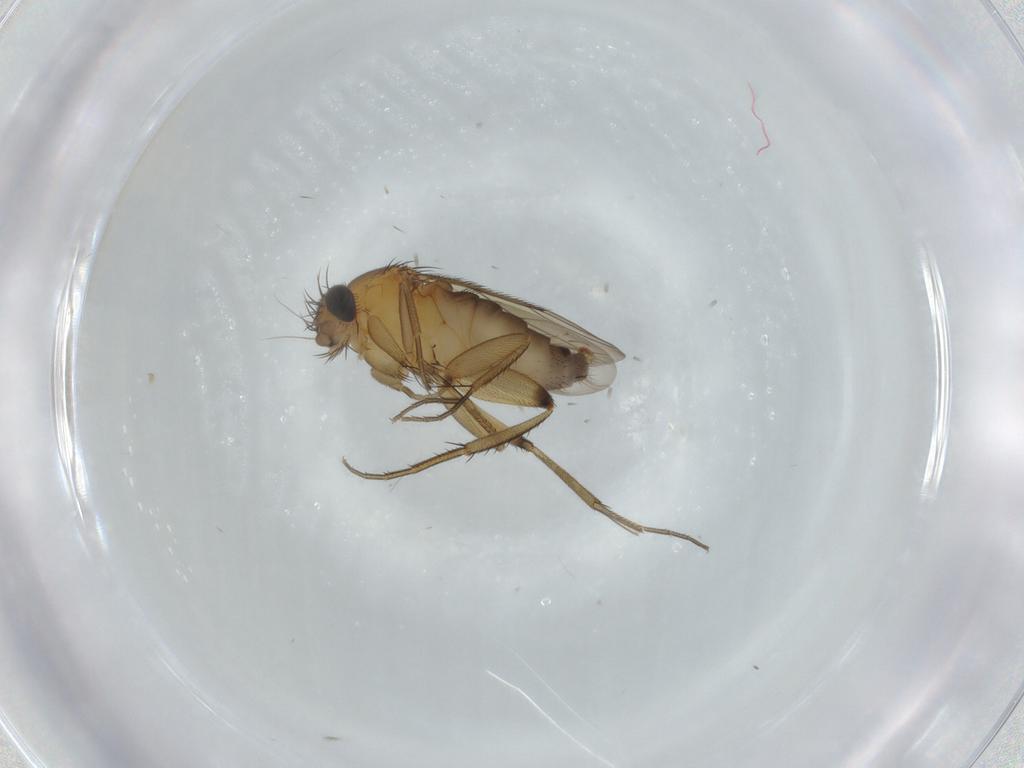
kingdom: Animalia
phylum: Arthropoda
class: Insecta
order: Diptera
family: Phoridae
